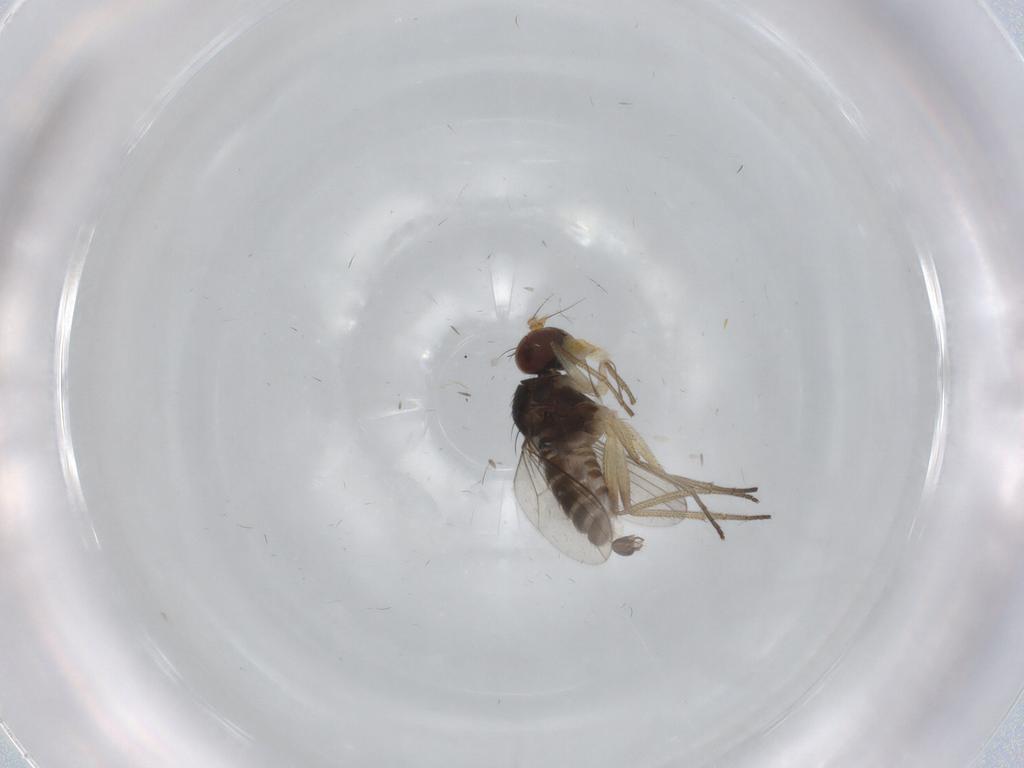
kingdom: Animalia
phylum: Arthropoda
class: Insecta
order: Diptera
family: Dolichopodidae
